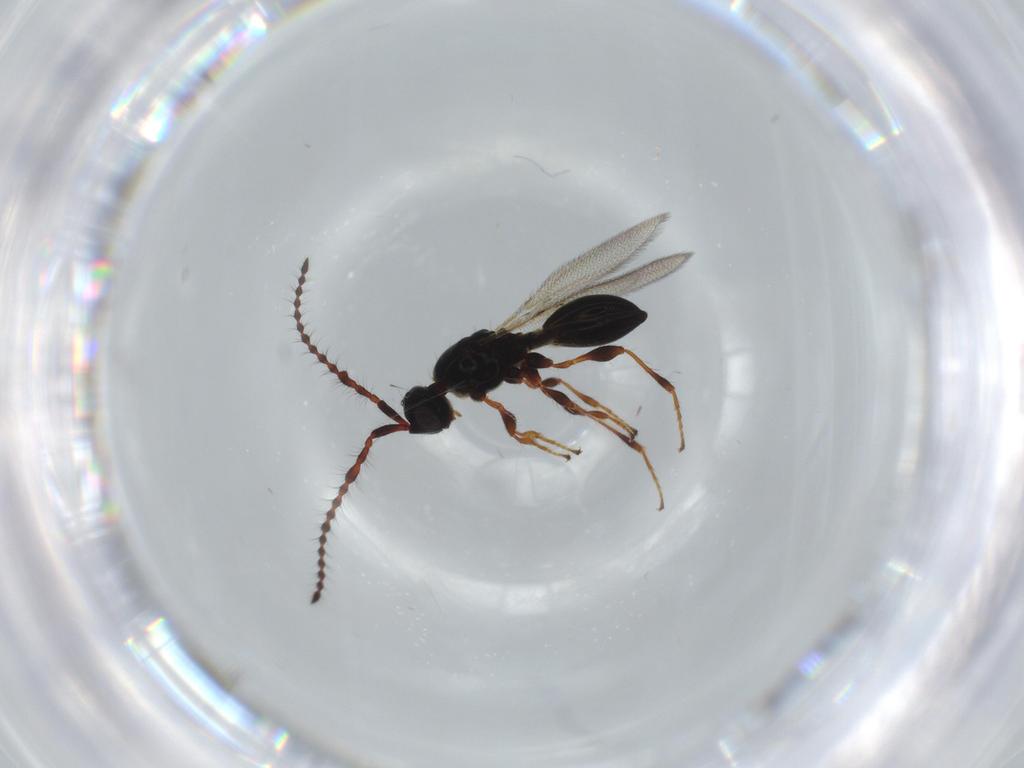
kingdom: Animalia
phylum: Arthropoda
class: Insecta
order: Hymenoptera
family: Diapriidae
